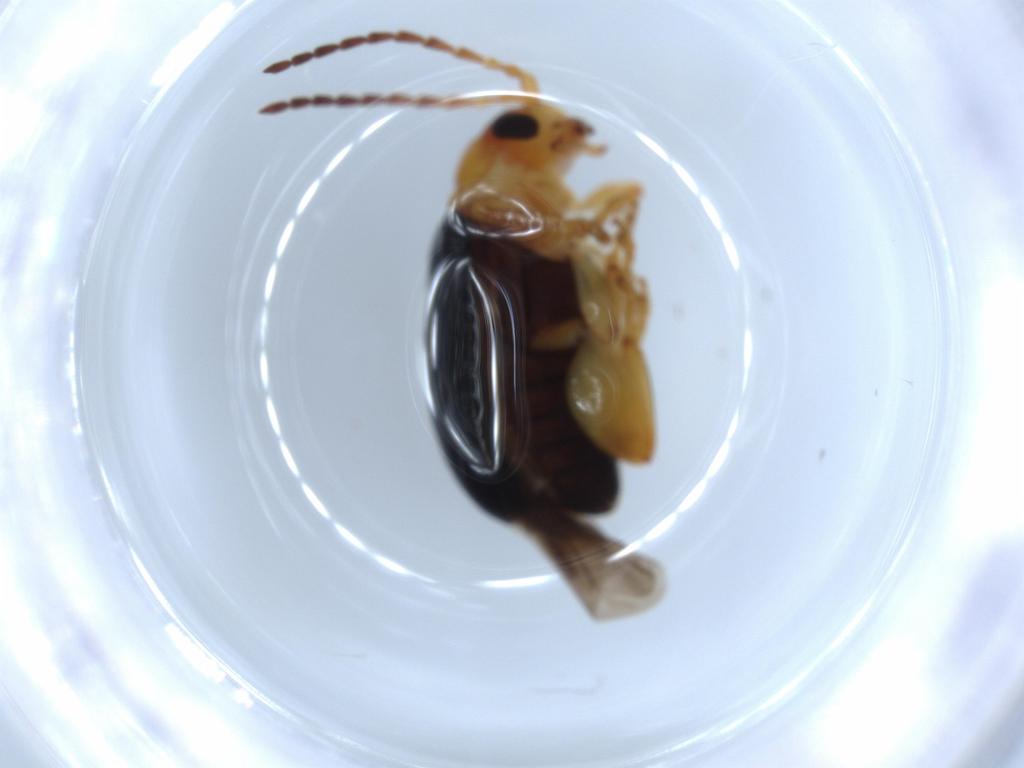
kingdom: Animalia
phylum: Arthropoda
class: Insecta
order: Coleoptera
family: Chrysomelidae
